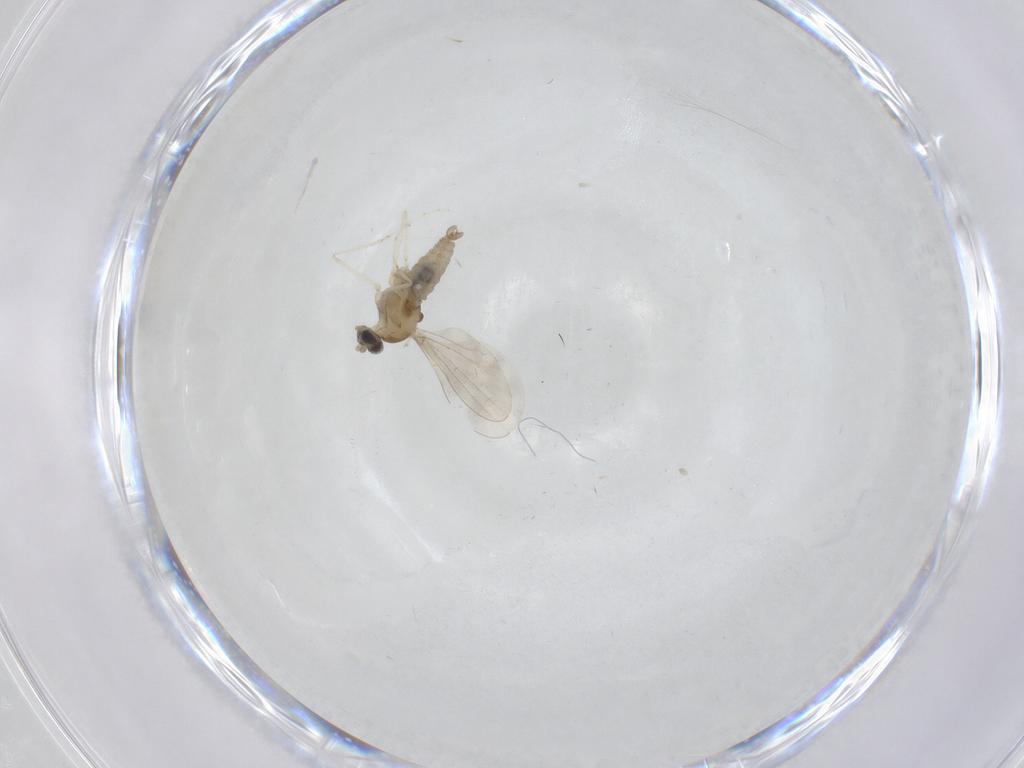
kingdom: Animalia
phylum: Arthropoda
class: Insecta
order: Diptera
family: Cecidomyiidae
